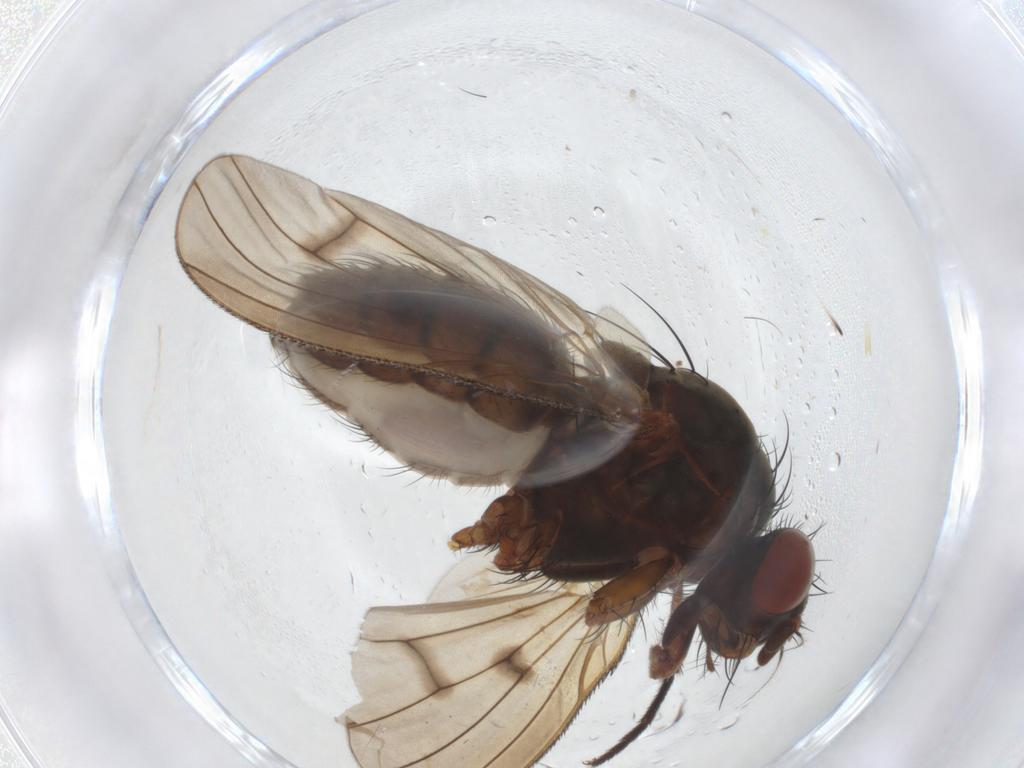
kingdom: Animalia
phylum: Arthropoda
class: Insecta
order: Diptera
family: Anthomyiidae
